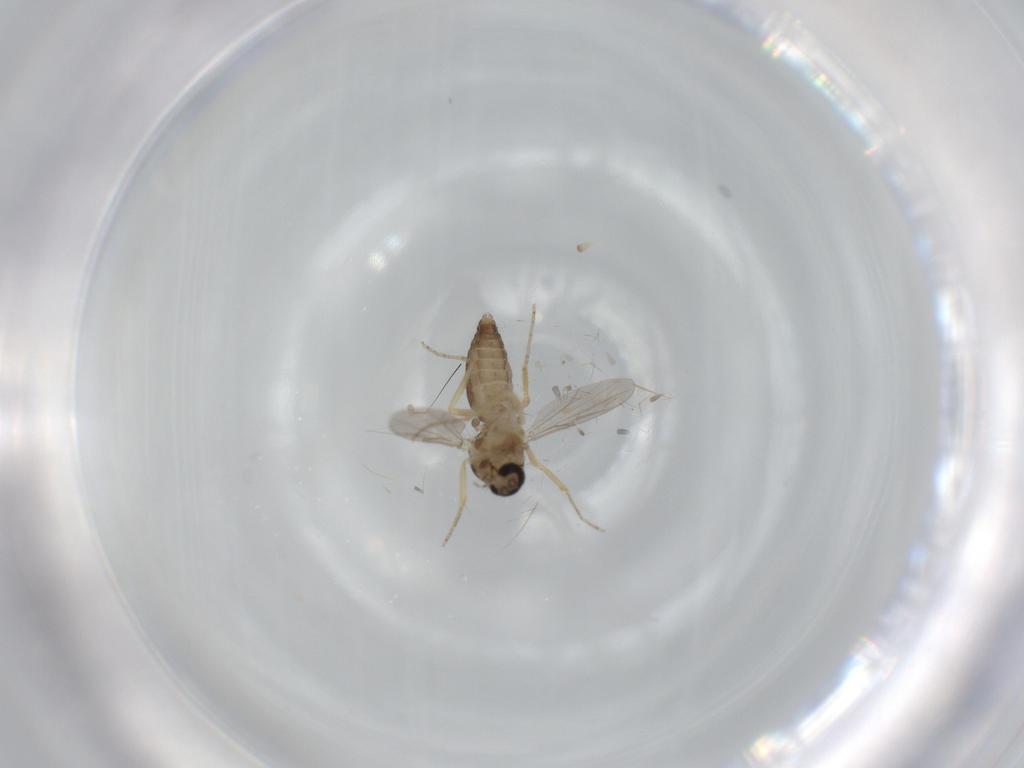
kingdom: Animalia
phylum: Arthropoda
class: Insecta
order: Diptera
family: Ceratopogonidae
